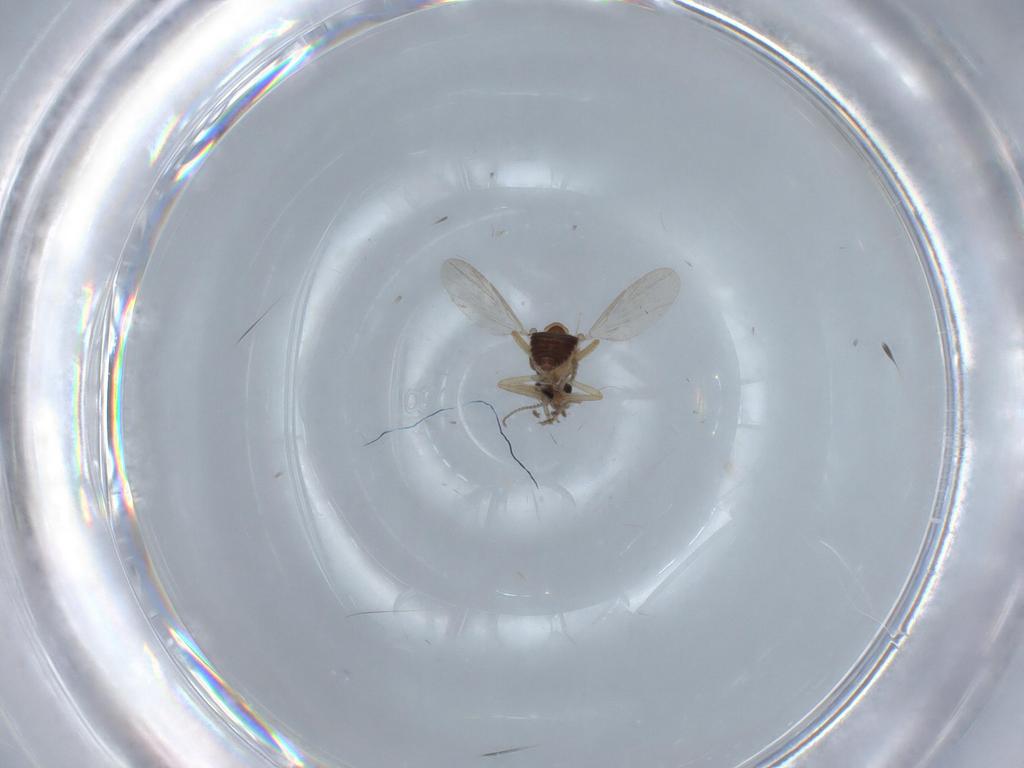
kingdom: Animalia
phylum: Arthropoda
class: Insecta
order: Diptera
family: Ceratopogonidae
